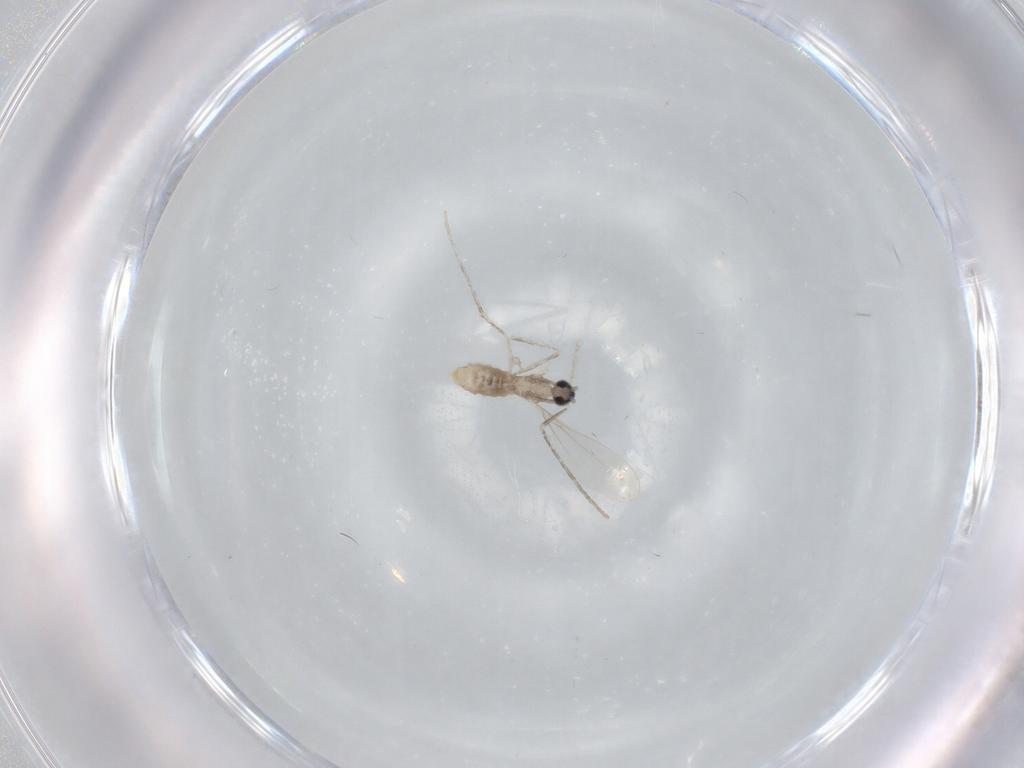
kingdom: Animalia
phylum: Arthropoda
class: Insecta
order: Diptera
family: Cecidomyiidae
